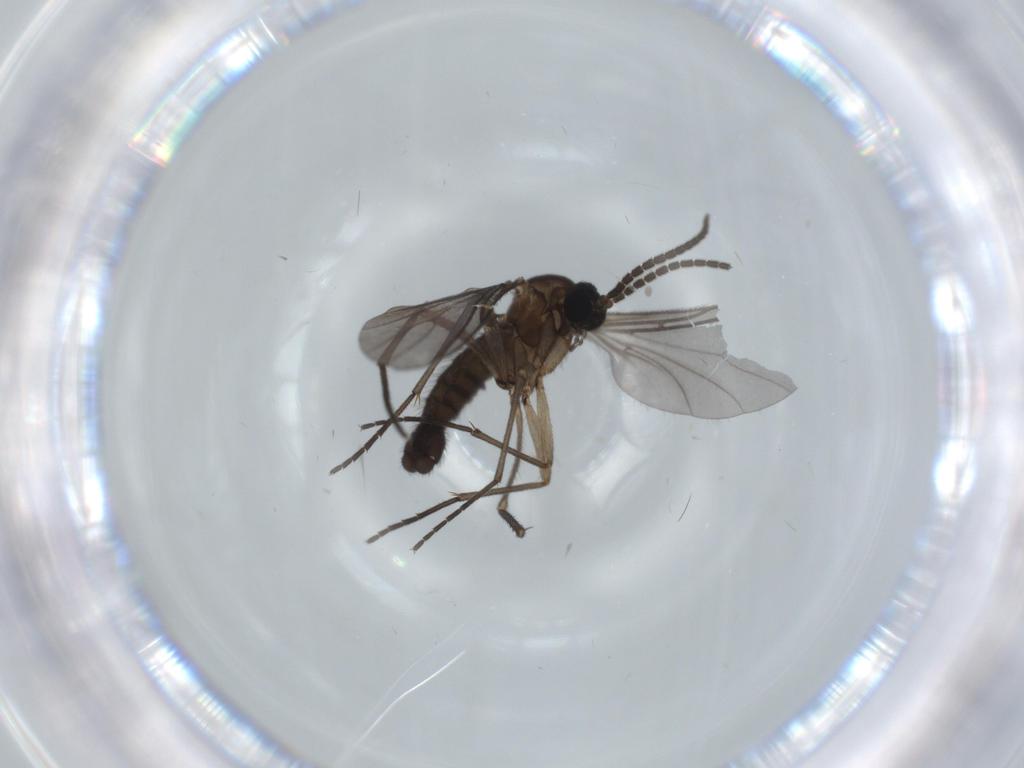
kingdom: Animalia
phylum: Arthropoda
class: Insecta
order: Diptera
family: Sciaridae
